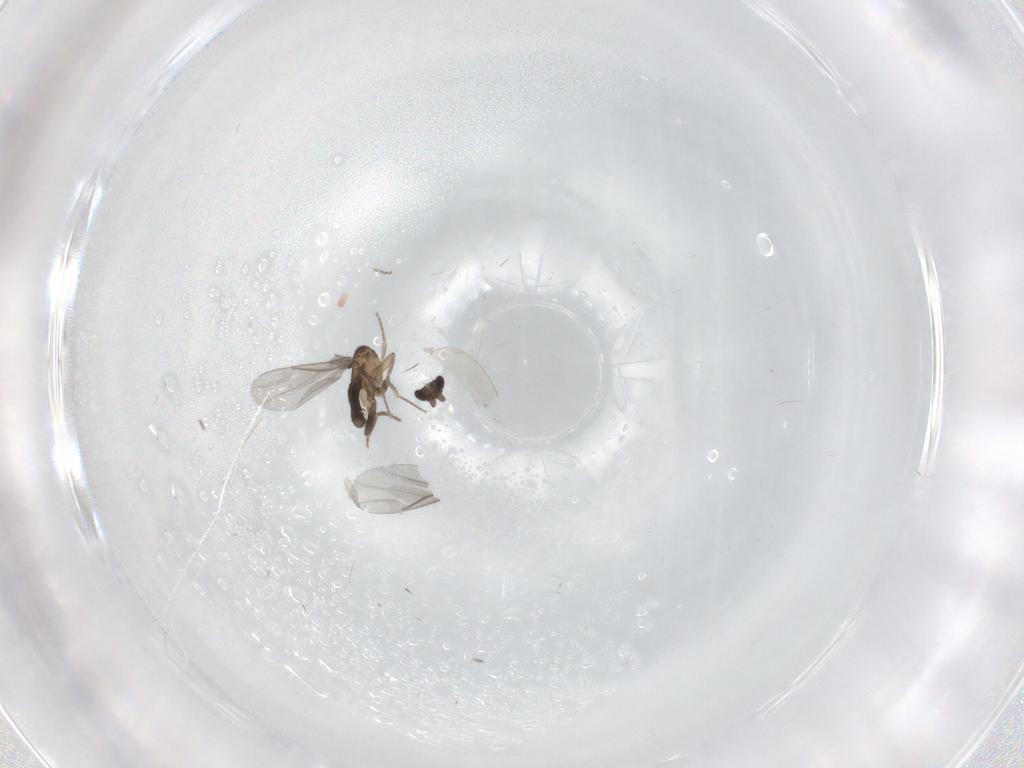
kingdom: Animalia
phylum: Arthropoda
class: Insecta
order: Diptera
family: Cecidomyiidae
